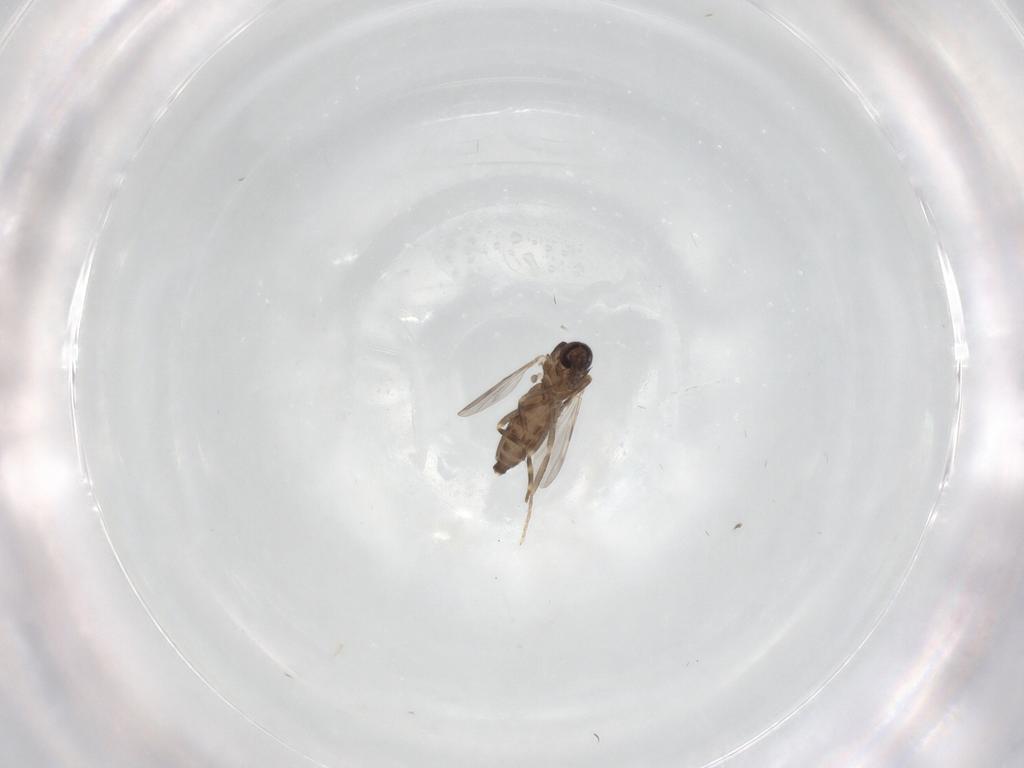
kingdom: Animalia
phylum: Arthropoda
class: Insecta
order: Diptera
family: Ceratopogonidae
